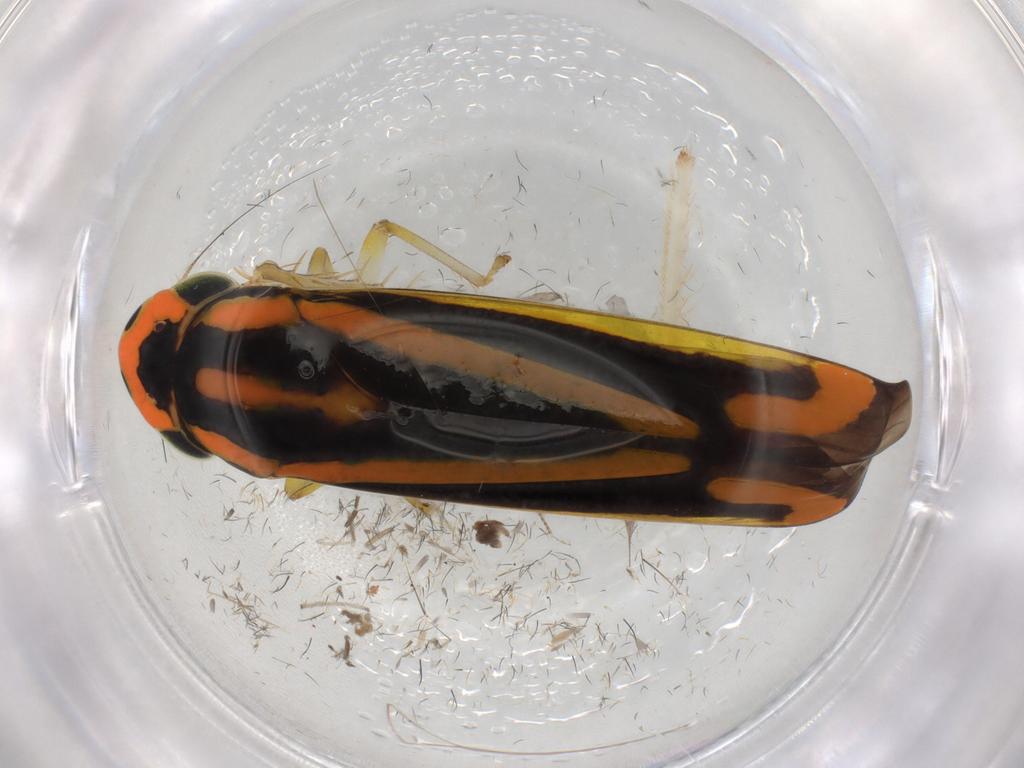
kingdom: Animalia
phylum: Arthropoda
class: Insecta
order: Hemiptera
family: Cicadellidae
